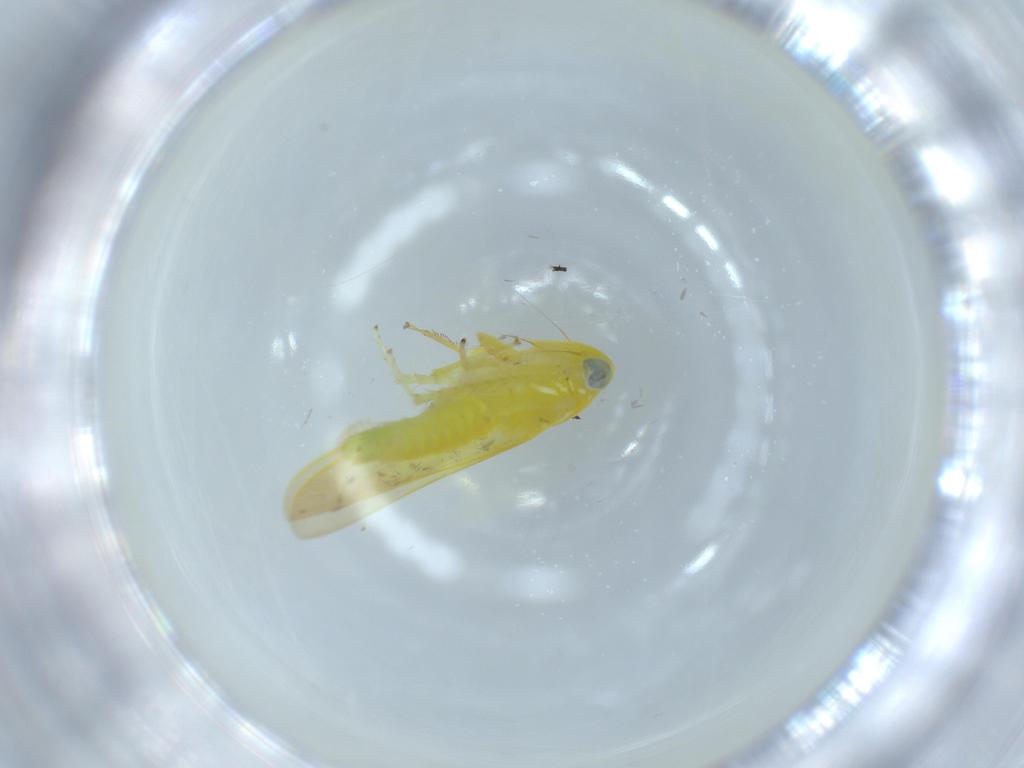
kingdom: Animalia
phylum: Arthropoda
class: Insecta
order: Hemiptera
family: Cicadellidae
